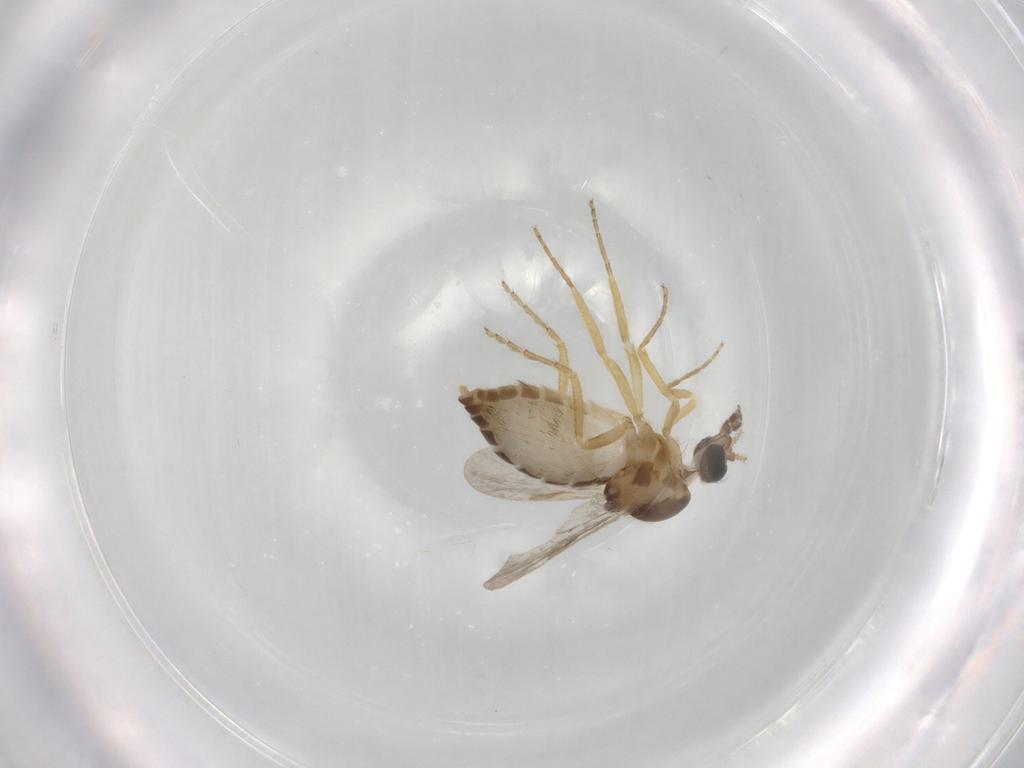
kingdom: Animalia
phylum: Arthropoda
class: Insecta
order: Diptera
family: Ceratopogonidae
